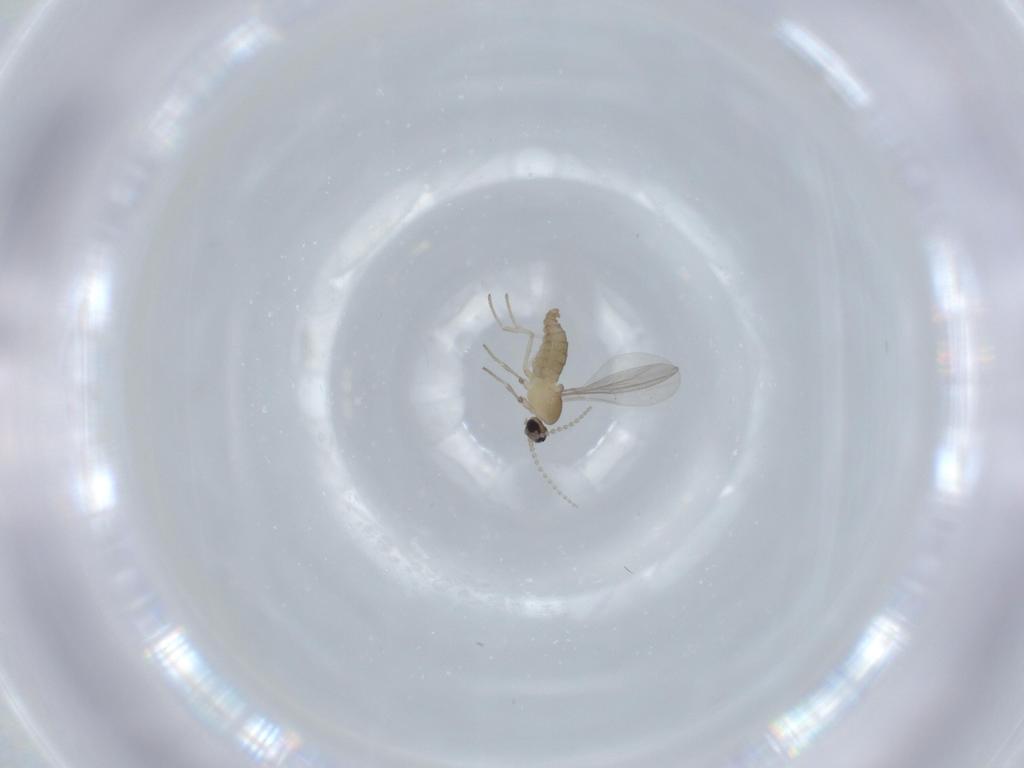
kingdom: Animalia
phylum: Arthropoda
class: Insecta
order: Diptera
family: Cecidomyiidae
